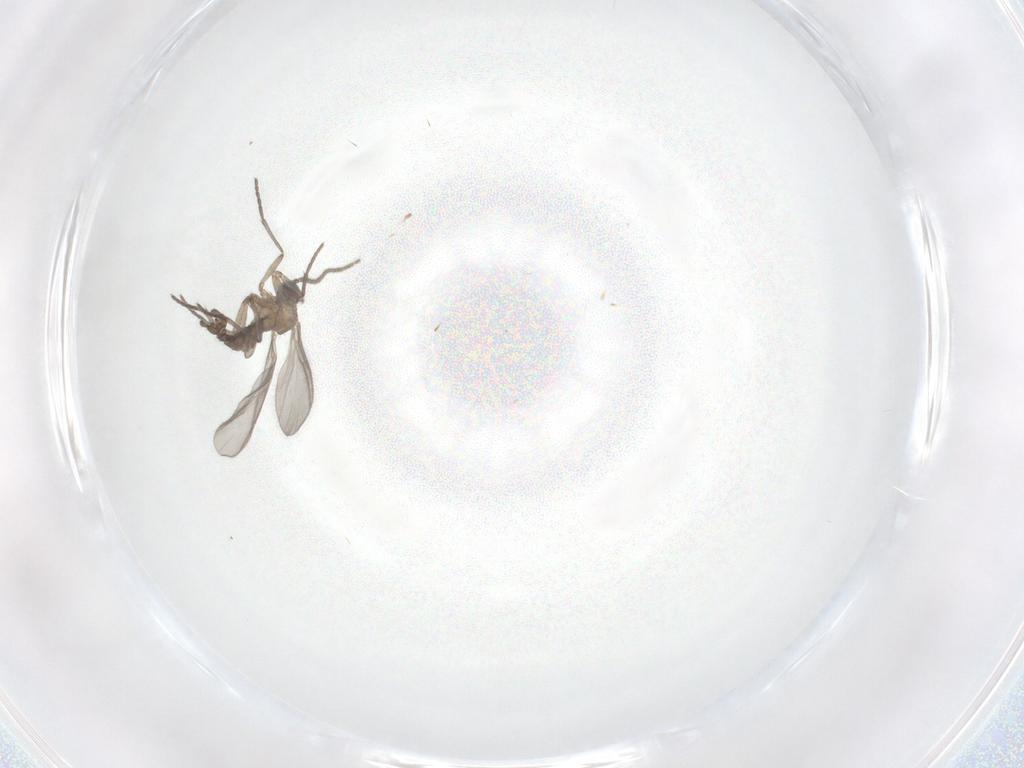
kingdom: Animalia
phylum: Arthropoda
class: Insecta
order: Diptera
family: Sciaridae
